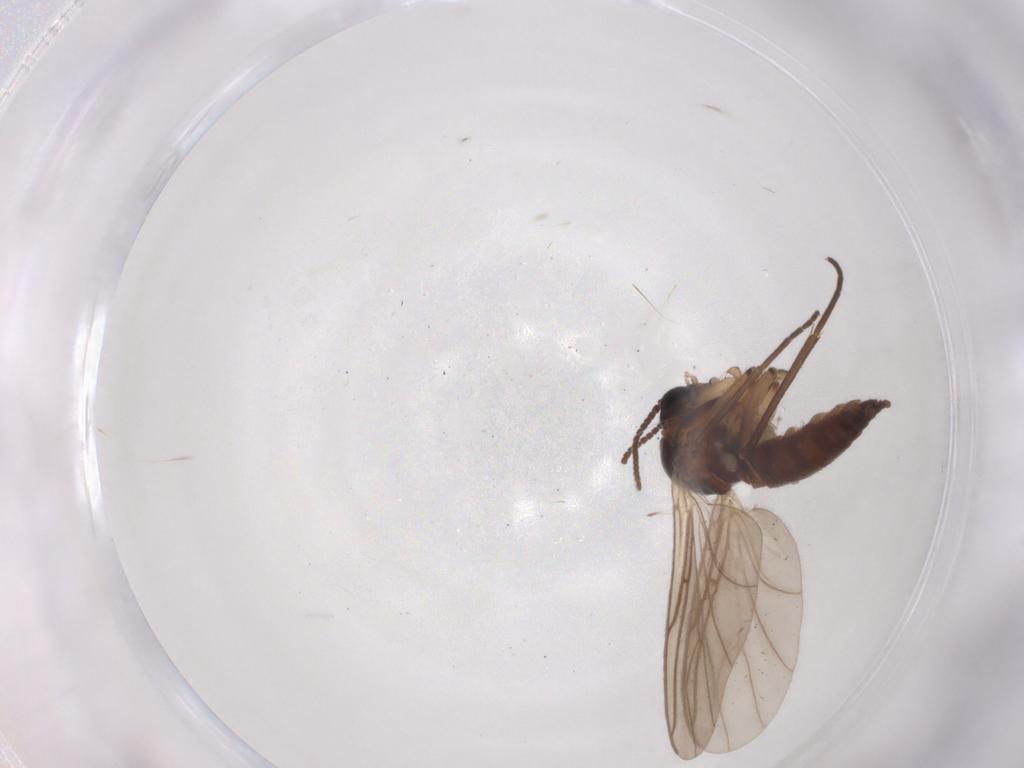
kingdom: Animalia
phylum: Arthropoda
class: Insecta
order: Diptera
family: Sciaridae
